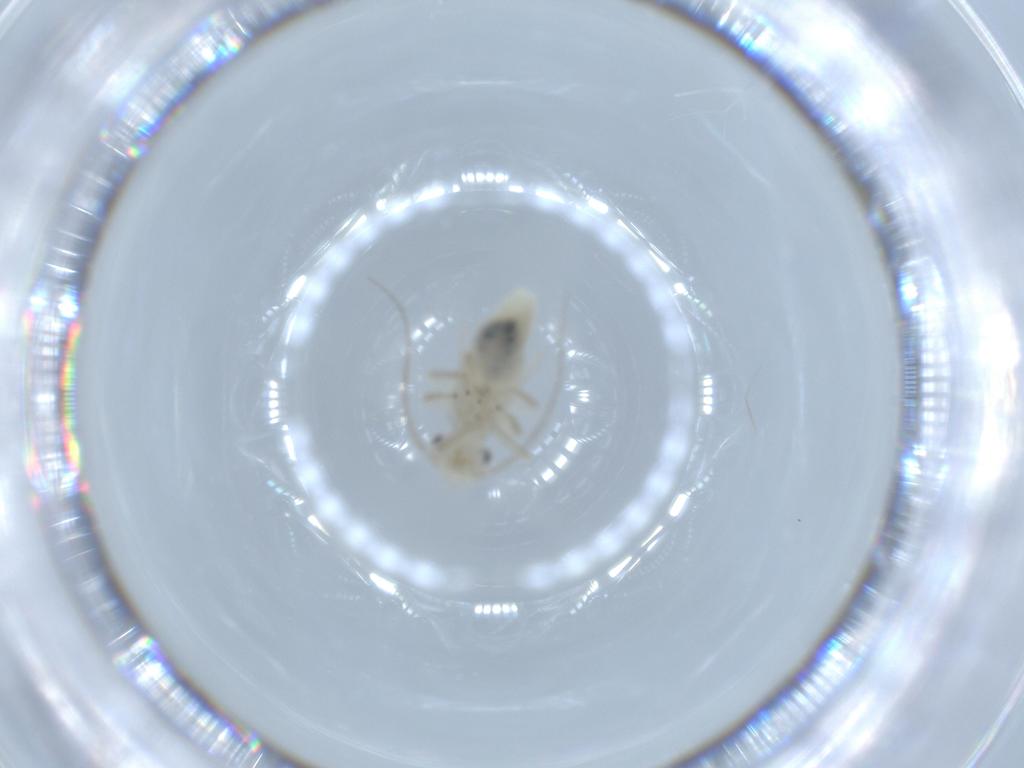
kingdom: Animalia
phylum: Arthropoda
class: Insecta
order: Psocodea
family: Caeciliusidae
